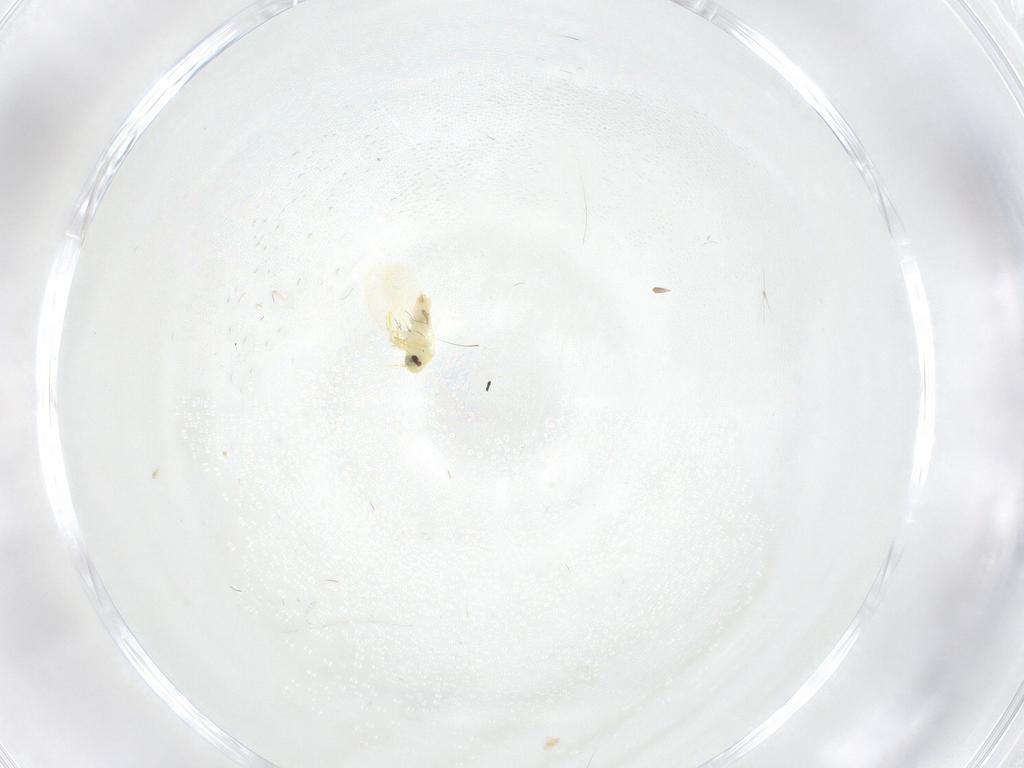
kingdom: Animalia
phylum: Arthropoda
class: Insecta
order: Hemiptera
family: Aleyrodidae
